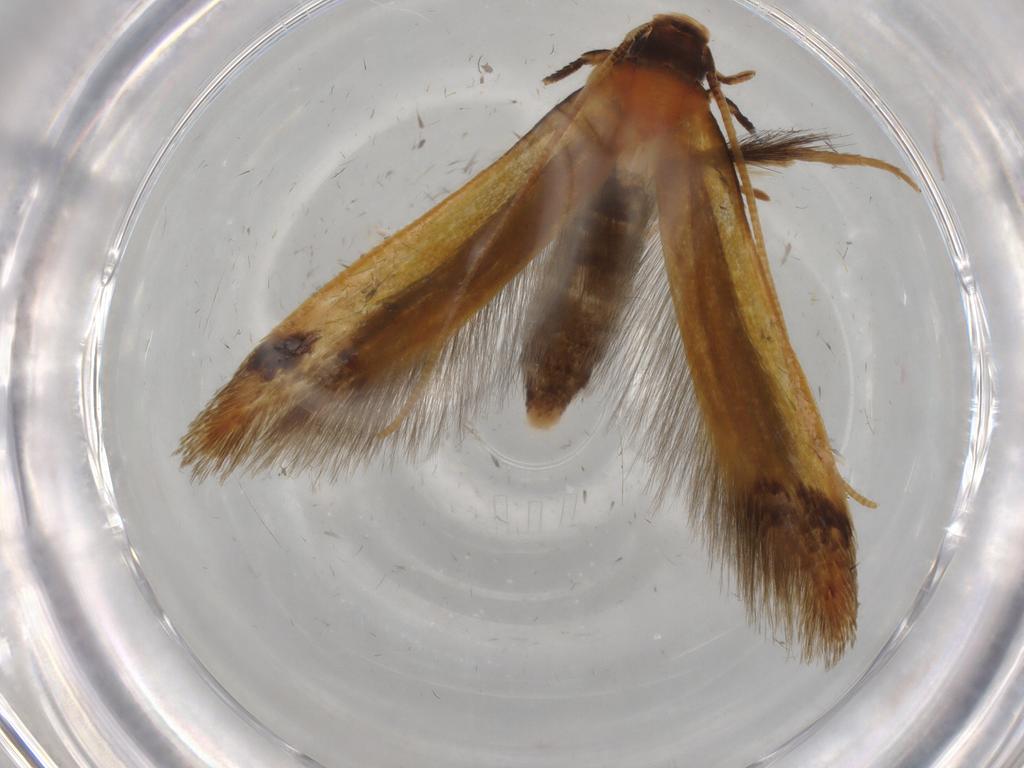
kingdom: Animalia
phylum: Arthropoda
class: Insecta
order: Lepidoptera
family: Tineidae
